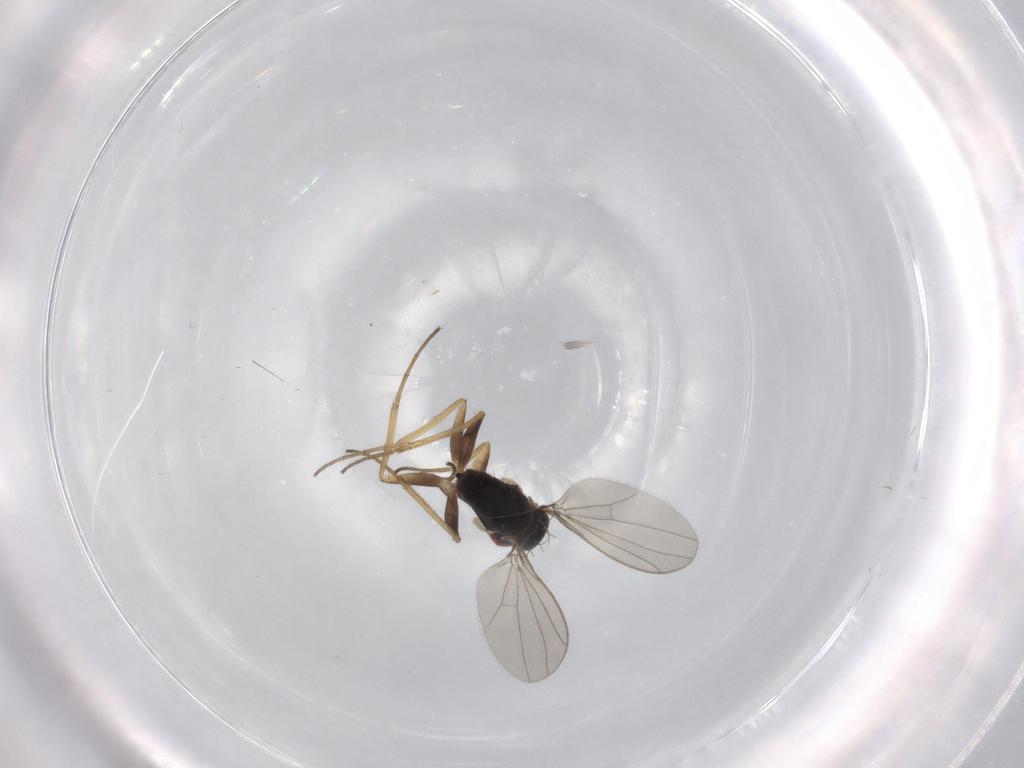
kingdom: Animalia
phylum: Arthropoda
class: Insecta
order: Diptera
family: Dolichopodidae
